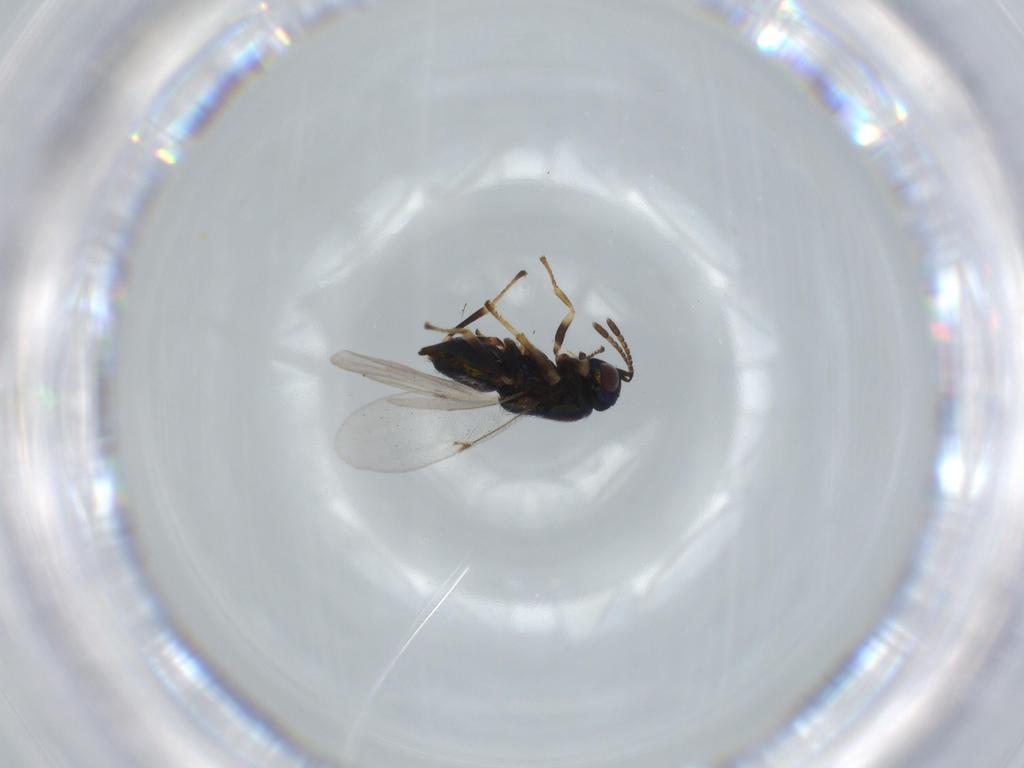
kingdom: Animalia
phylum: Arthropoda
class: Insecta
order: Hymenoptera
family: Encyrtidae
